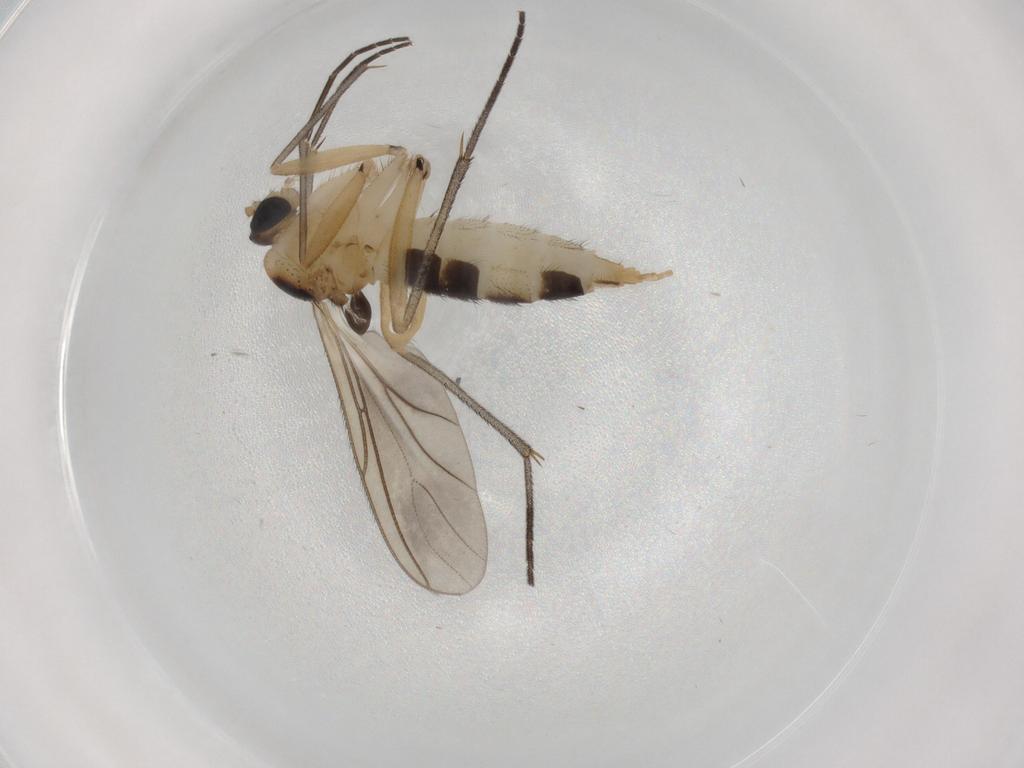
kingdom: Animalia
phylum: Arthropoda
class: Insecta
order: Diptera
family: Sciaridae
